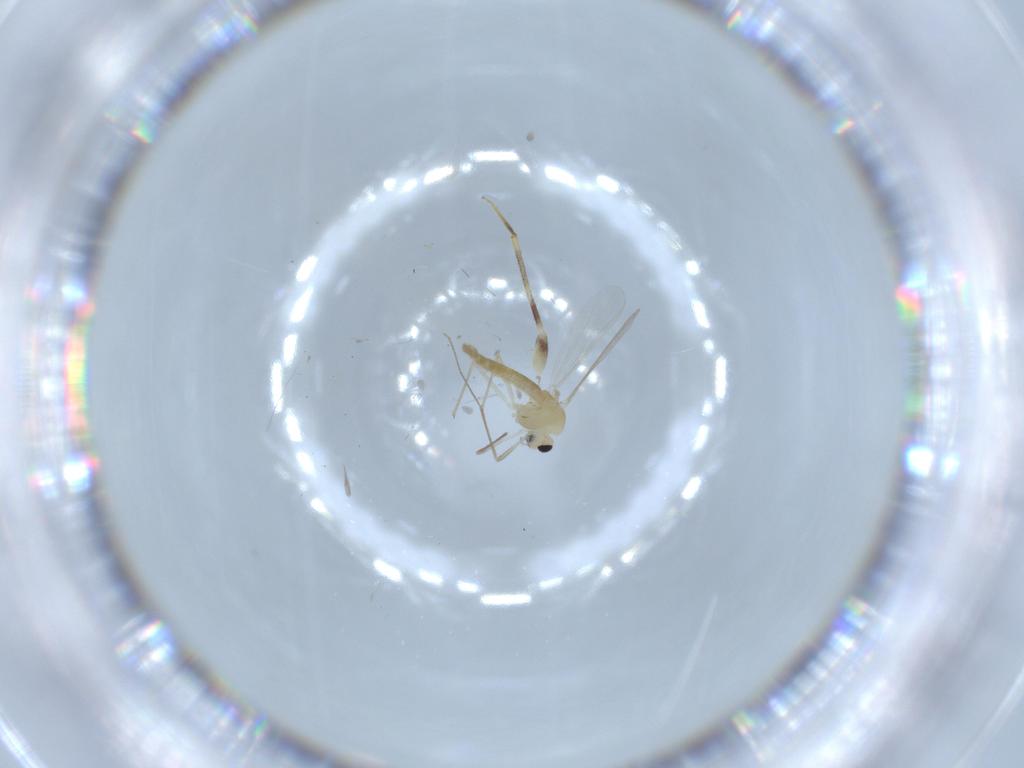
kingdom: Animalia
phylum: Arthropoda
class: Insecta
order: Diptera
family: Chironomidae
